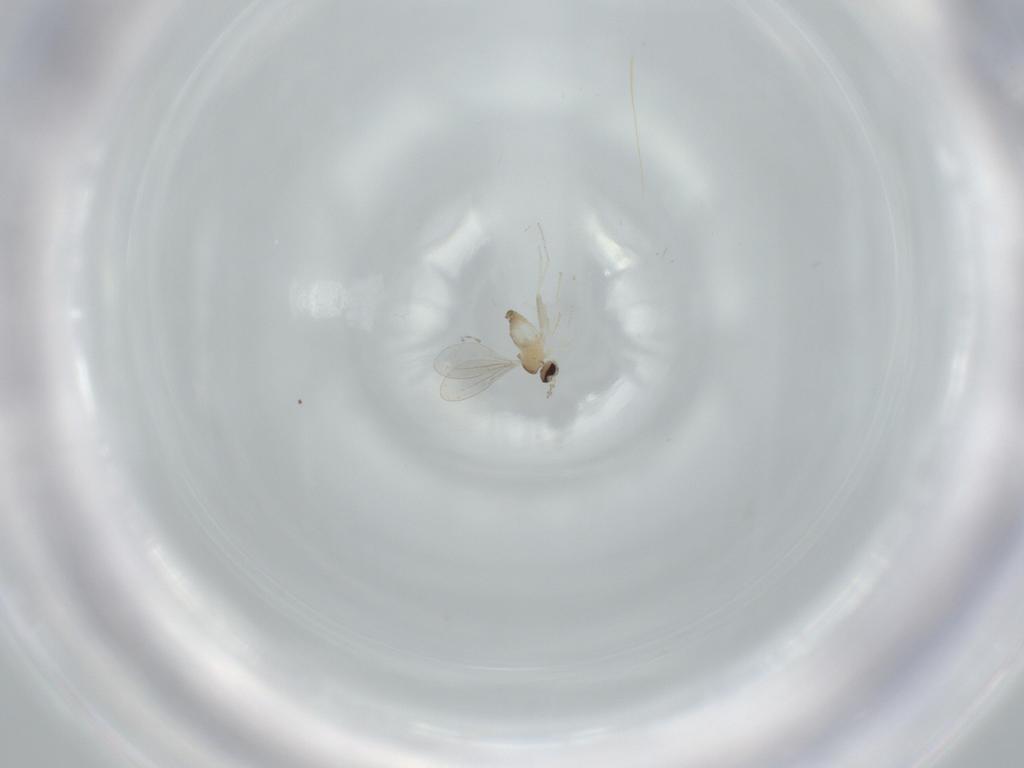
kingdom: Animalia
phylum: Arthropoda
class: Insecta
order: Diptera
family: Cecidomyiidae
